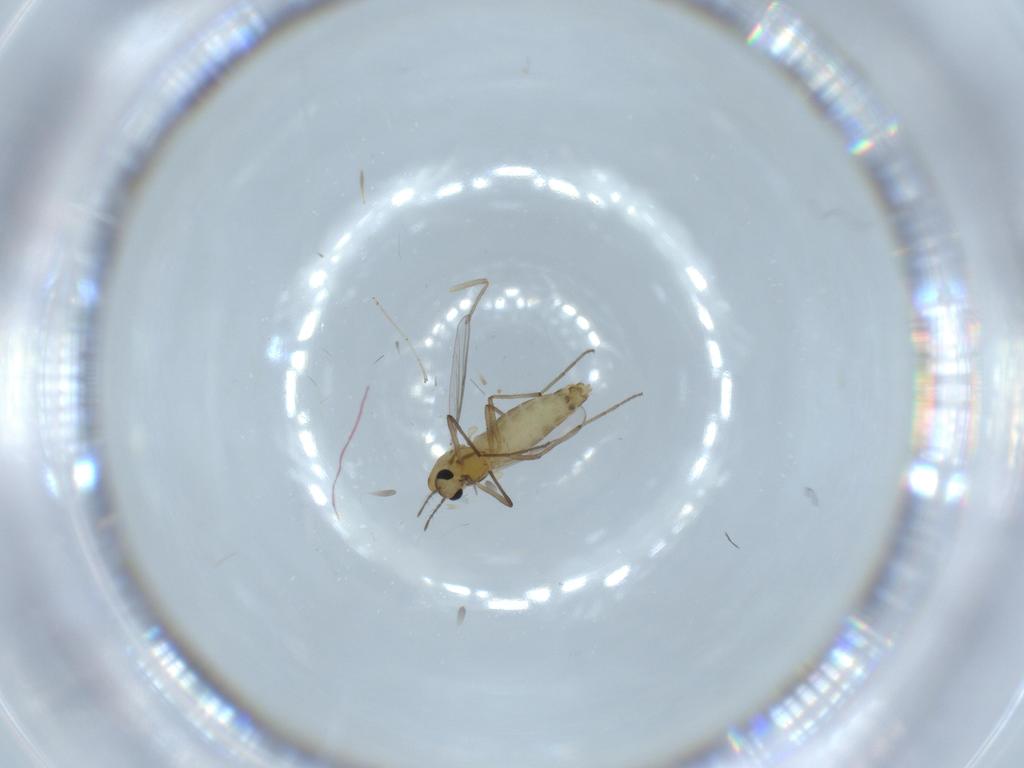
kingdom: Animalia
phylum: Arthropoda
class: Insecta
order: Diptera
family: Chironomidae
